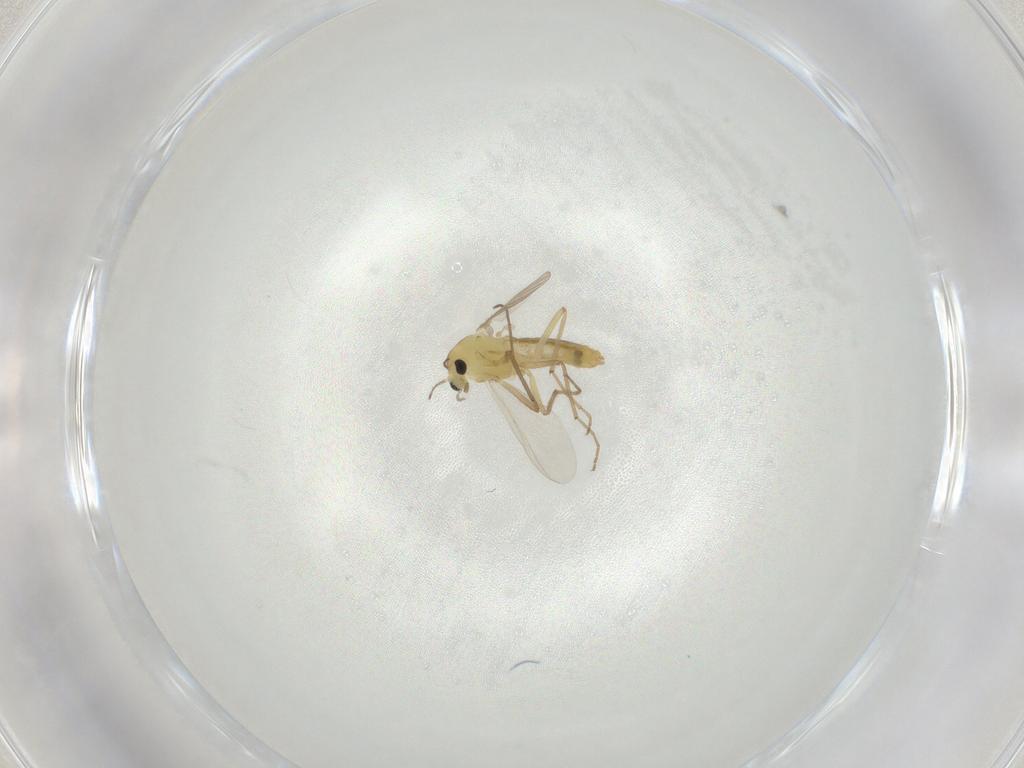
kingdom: Animalia
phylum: Arthropoda
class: Insecta
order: Diptera
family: Chironomidae
